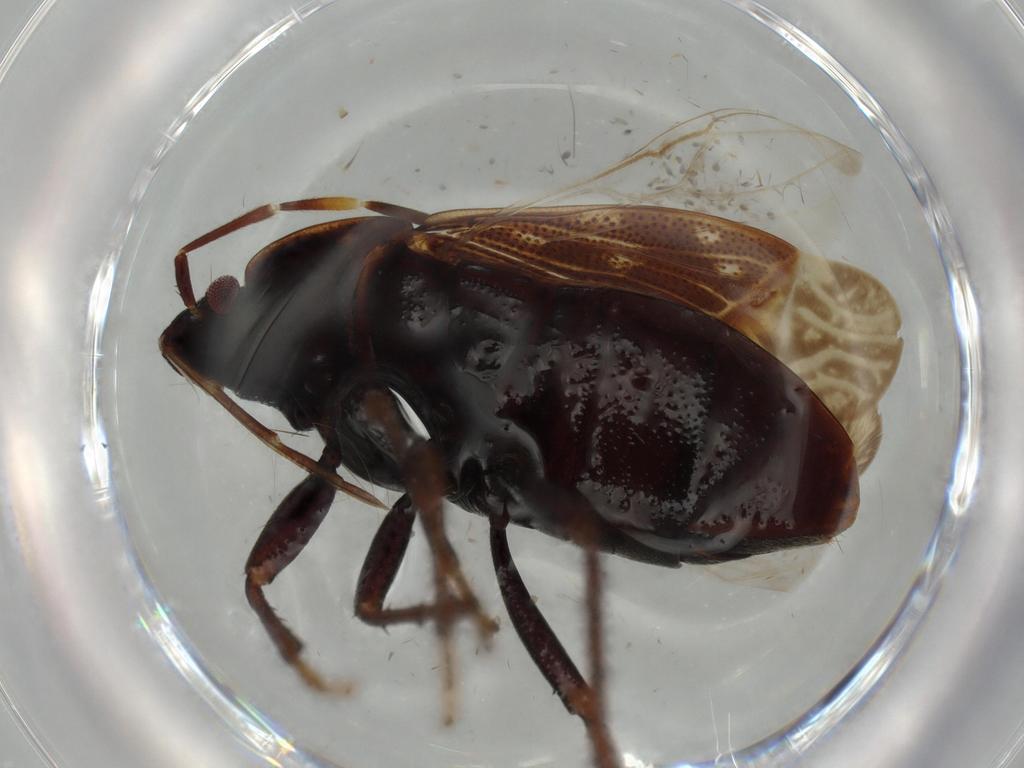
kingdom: Animalia
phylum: Arthropoda
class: Insecta
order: Hemiptera
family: Rhyparochromidae
